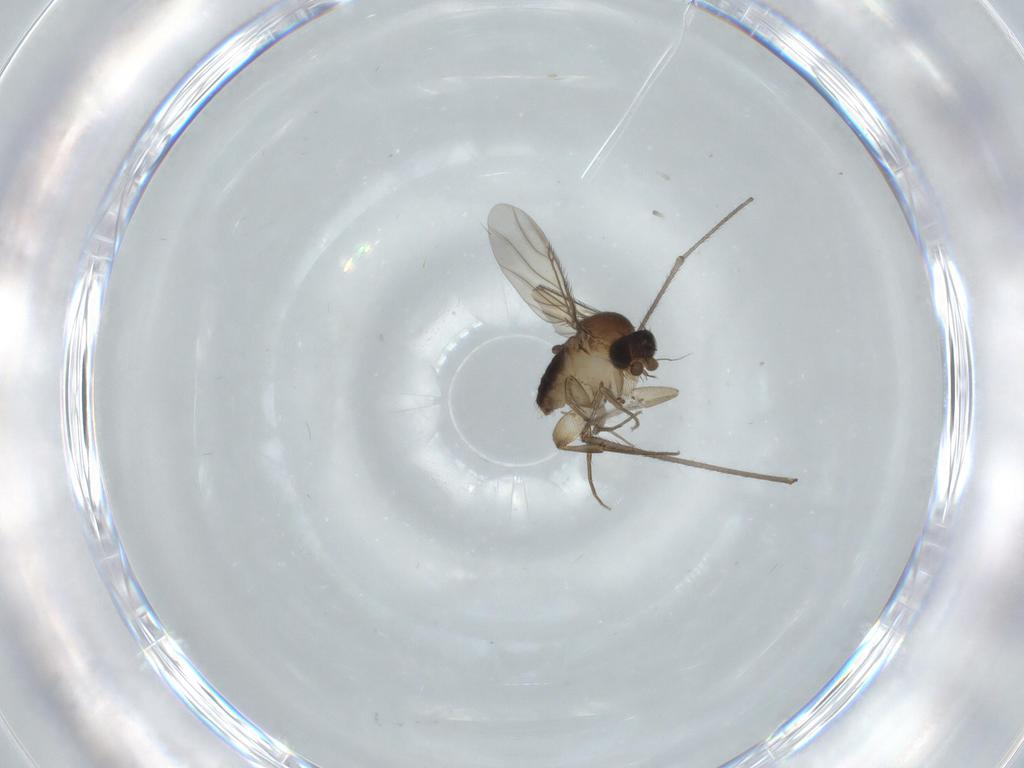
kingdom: Animalia
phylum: Arthropoda
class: Insecta
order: Diptera
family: Phoridae
